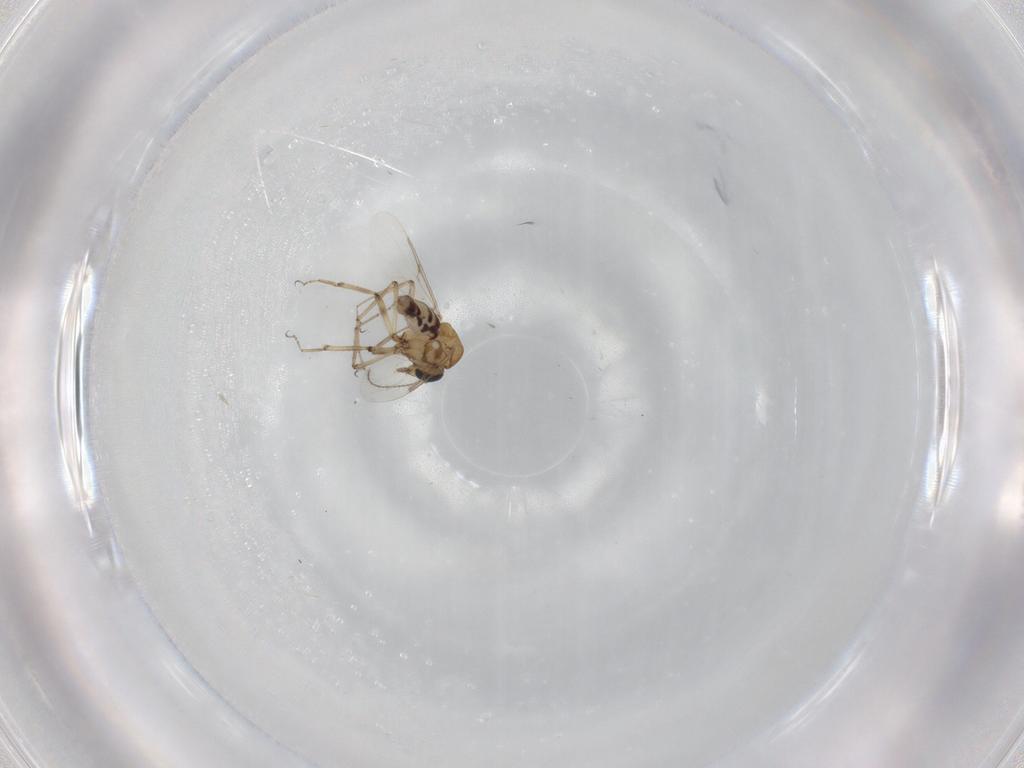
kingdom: Animalia
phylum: Arthropoda
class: Insecta
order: Diptera
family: Ceratopogonidae
